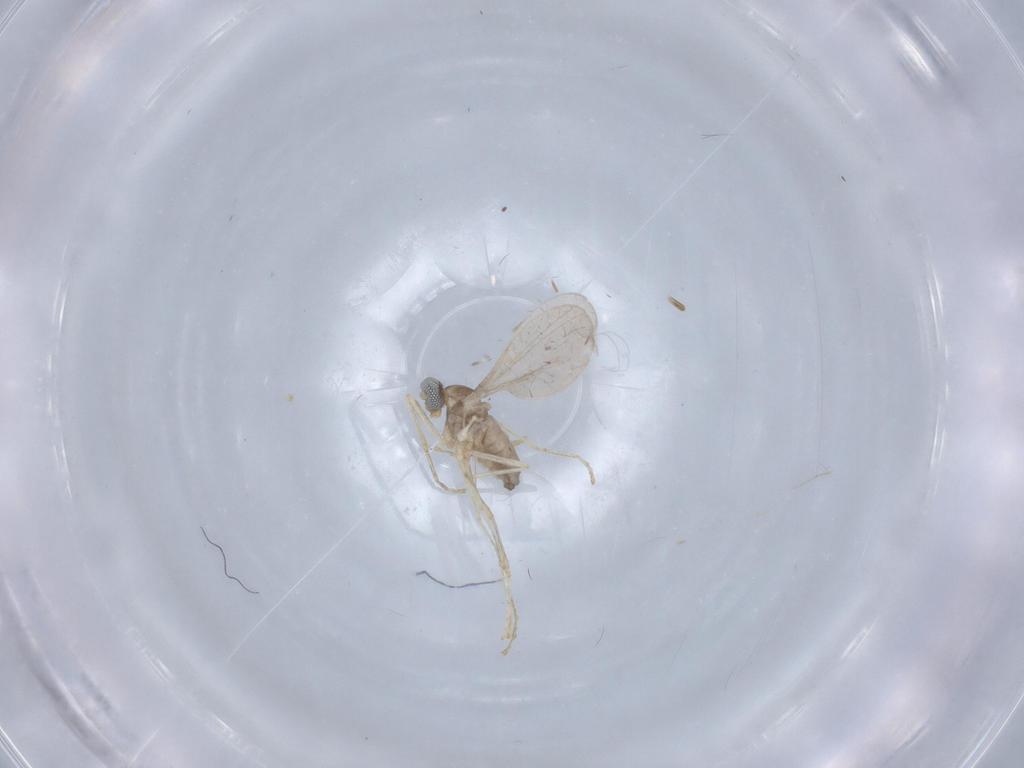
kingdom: Animalia
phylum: Arthropoda
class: Insecta
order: Diptera
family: Cecidomyiidae
